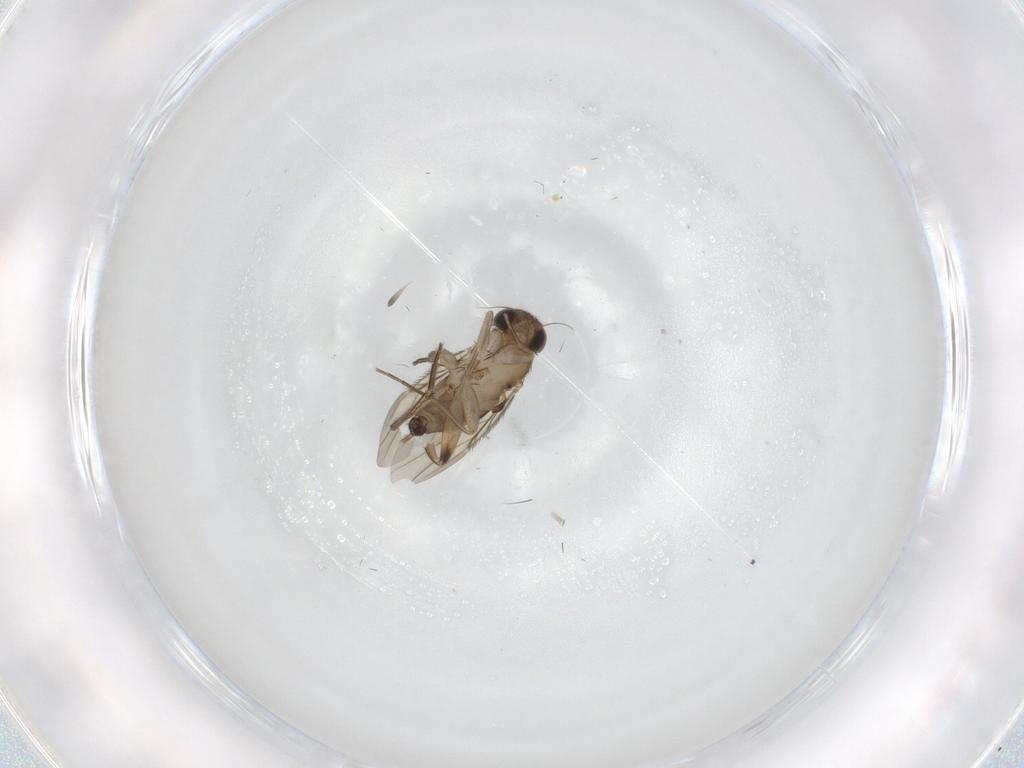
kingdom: Animalia
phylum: Arthropoda
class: Insecta
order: Diptera
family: Phoridae
